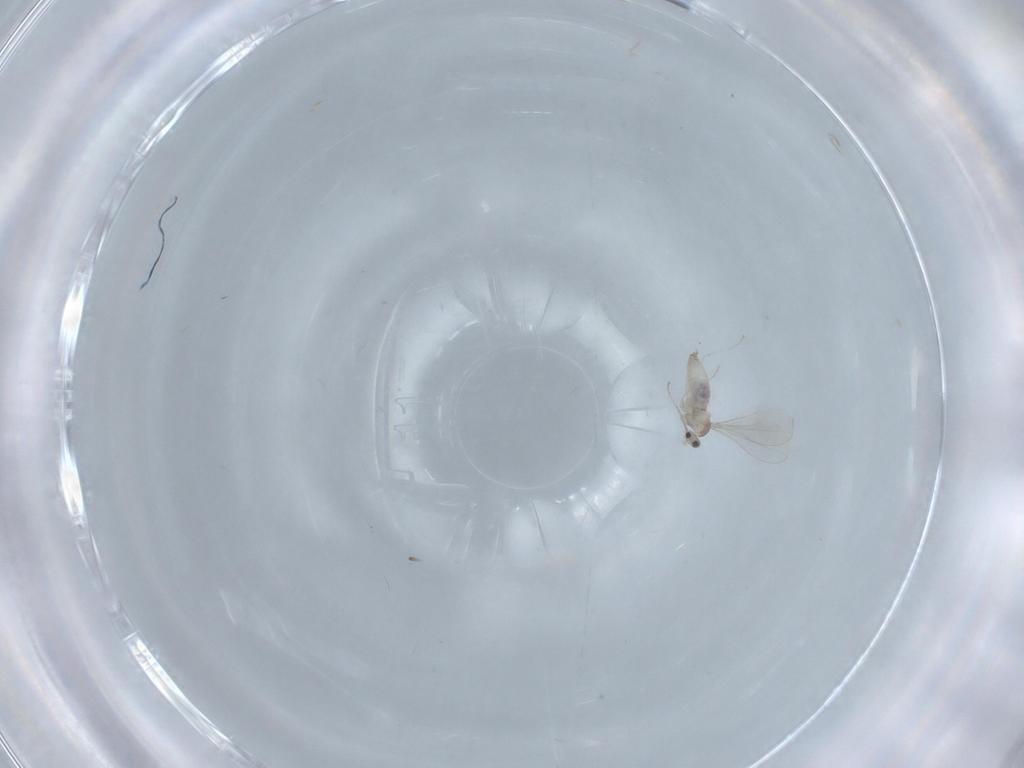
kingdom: Animalia
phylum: Arthropoda
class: Insecta
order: Diptera
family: Cecidomyiidae
